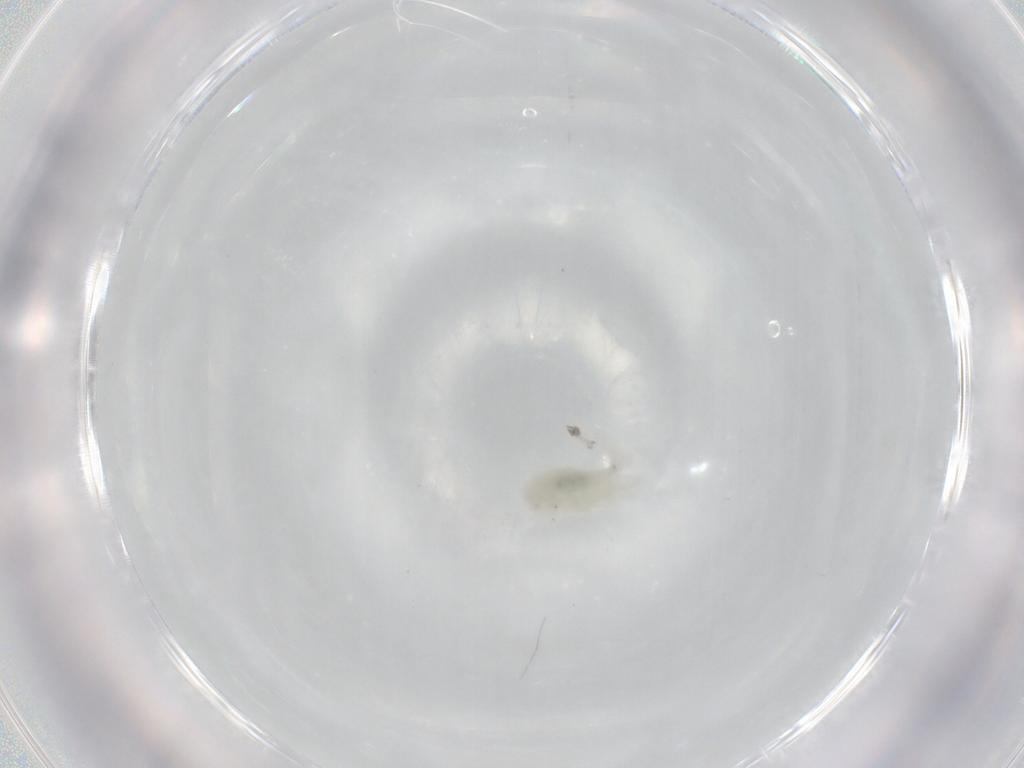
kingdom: Animalia
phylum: Arthropoda
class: Copepoda
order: Cyclopoida
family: Cyclopidae
